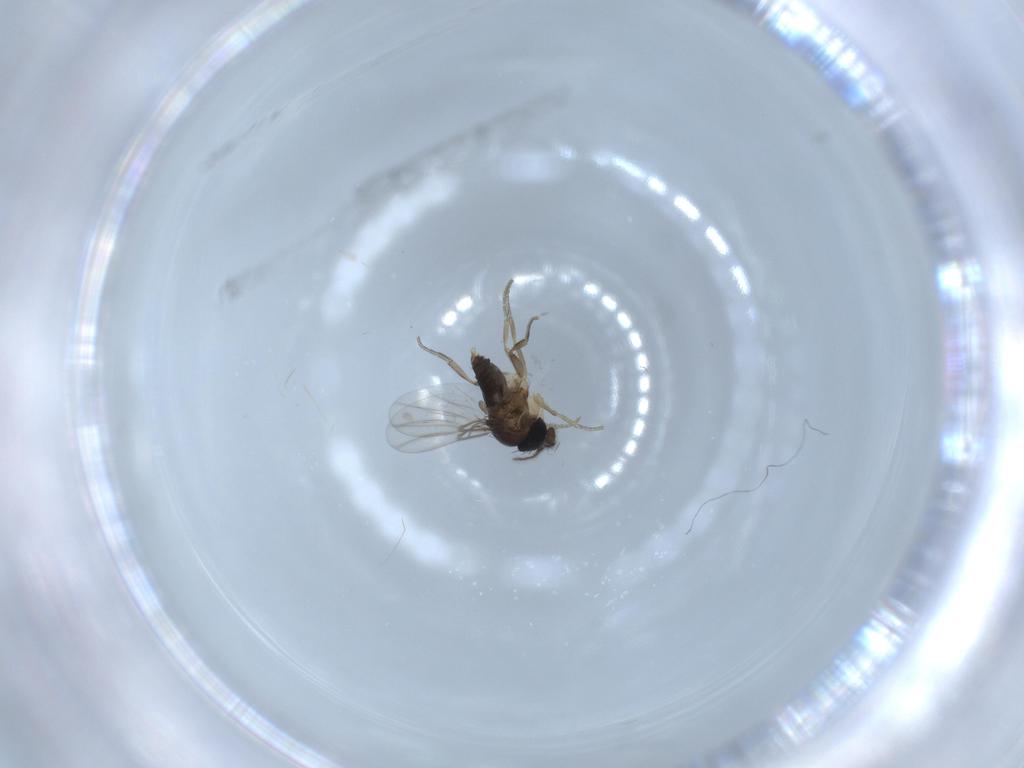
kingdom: Animalia
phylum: Arthropoda
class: Insecta
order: Diptera
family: Phoridae
